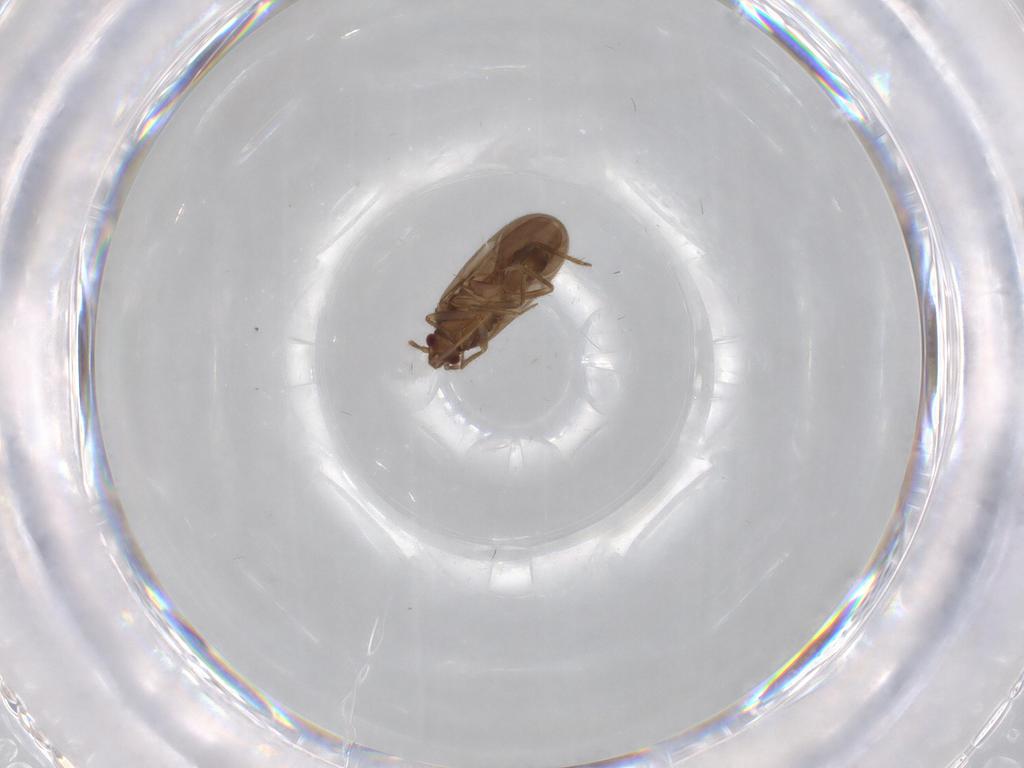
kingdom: Animalia
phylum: Arthropoda
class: Insecta
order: Hemiptera
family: Ceratocombidae
